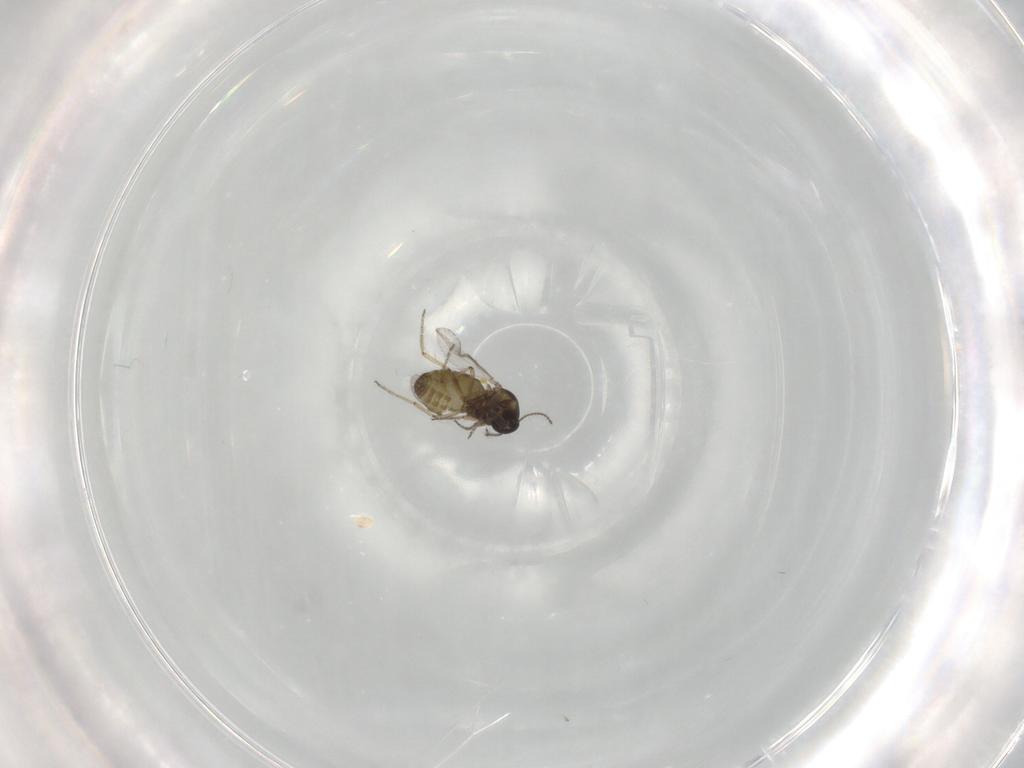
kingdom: Animalia
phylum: Arthropoda
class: Insecta
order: Diptera
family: Ceratopogonidae
